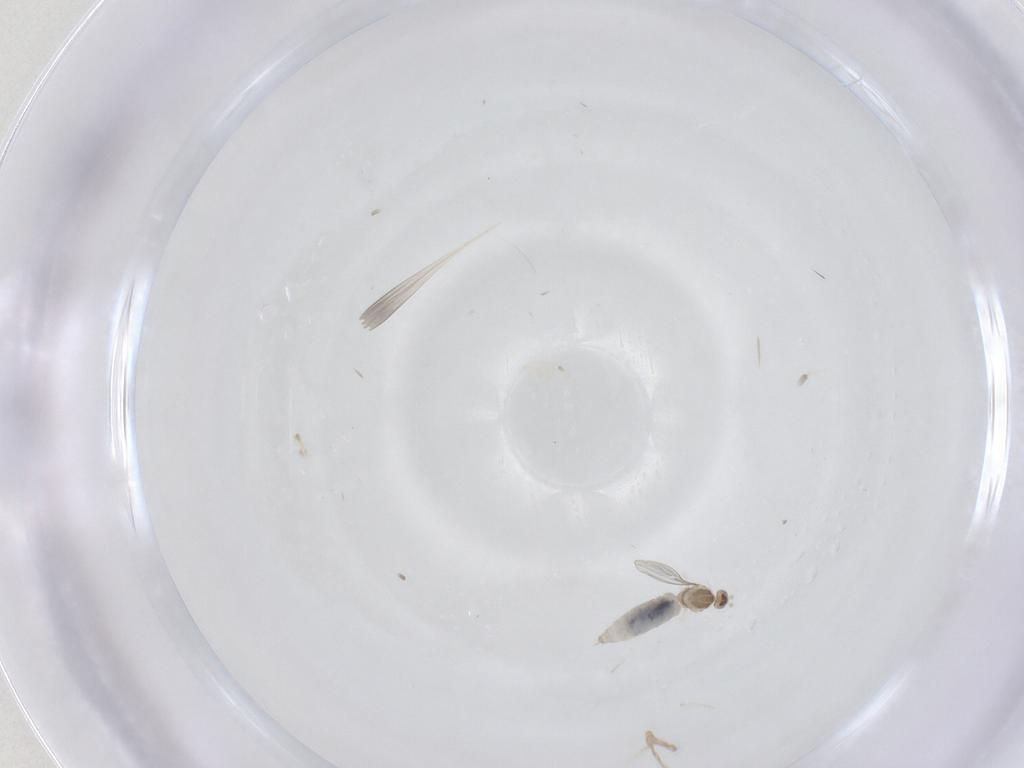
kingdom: Animalia
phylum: Arthropoda
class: Insecta
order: Diptera
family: Cecidomyiidae
